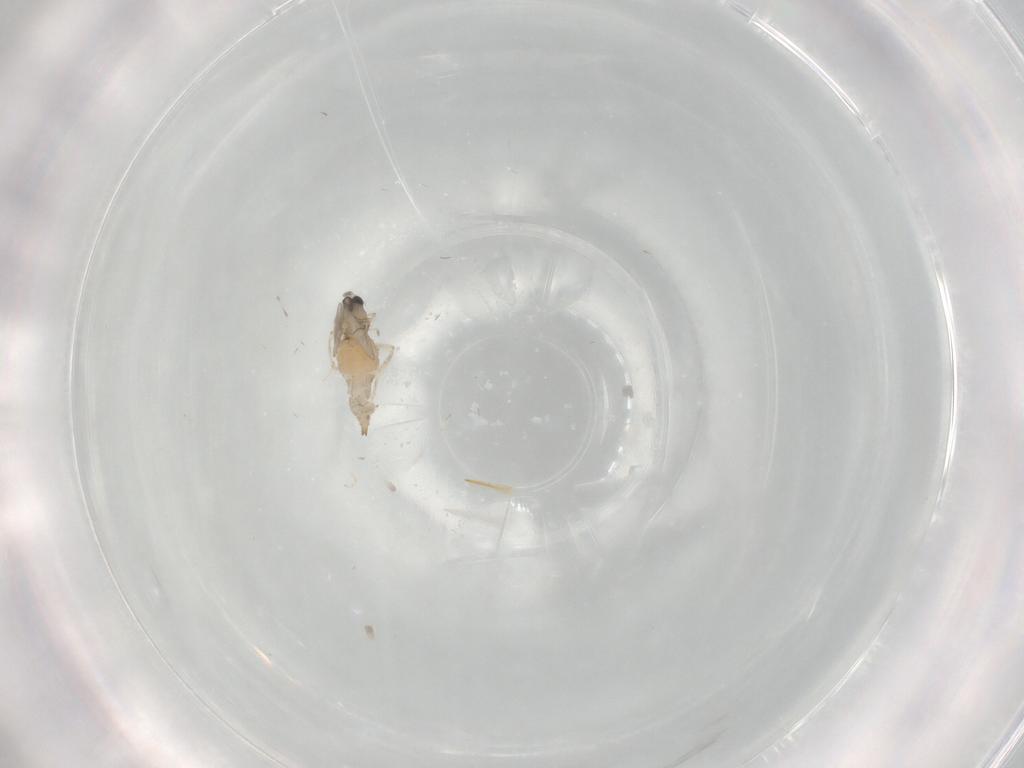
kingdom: Animalia
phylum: Arthropoda
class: Insecta
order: Diptera
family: Cecidomyiidae
